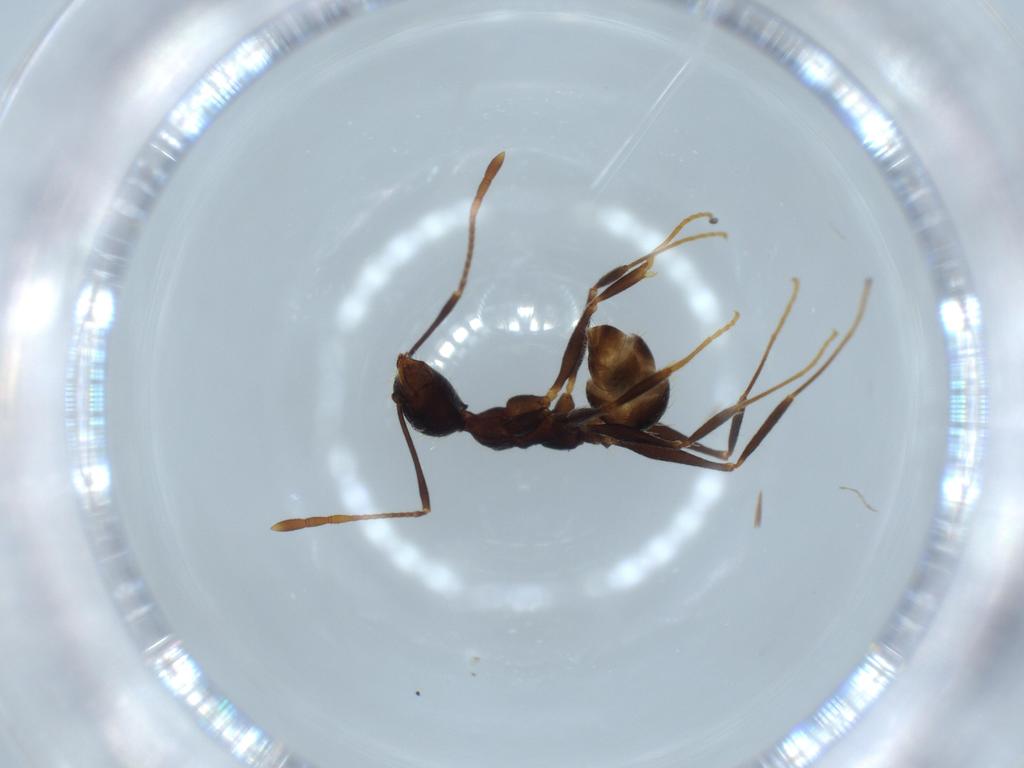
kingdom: Animalia
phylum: Arthropoda
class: Insecta
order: Hymenoptera
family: Formicidae
